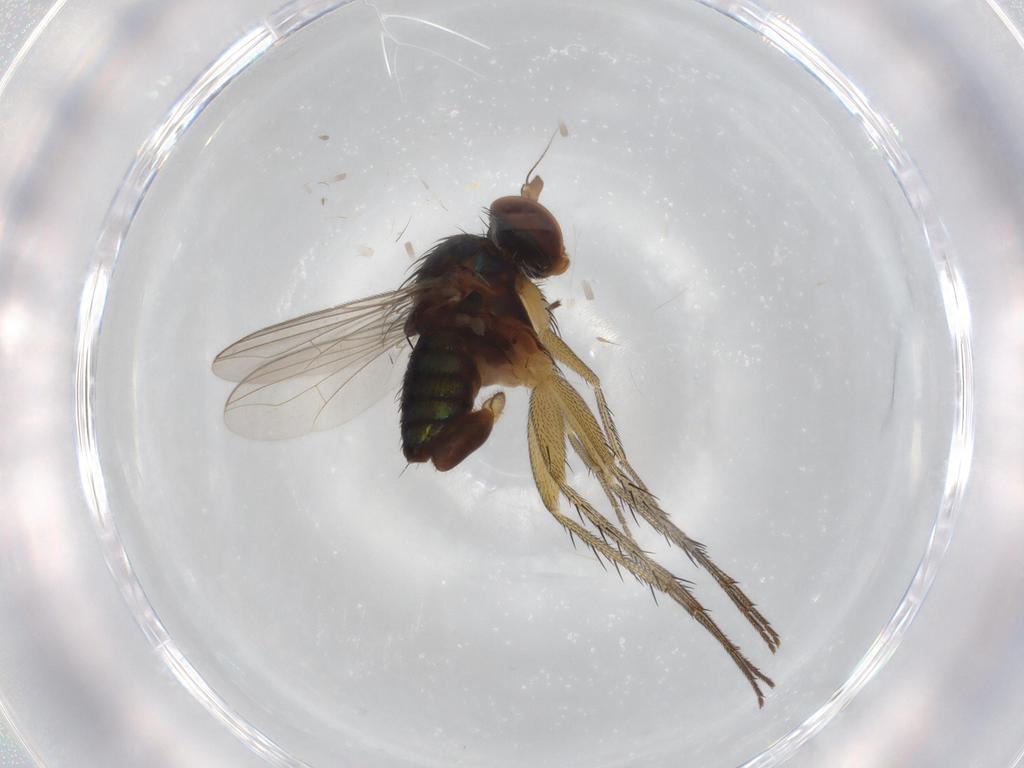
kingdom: Animalia
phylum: Arthropoda
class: Insecta
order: Diptera
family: Dolichopodidae
